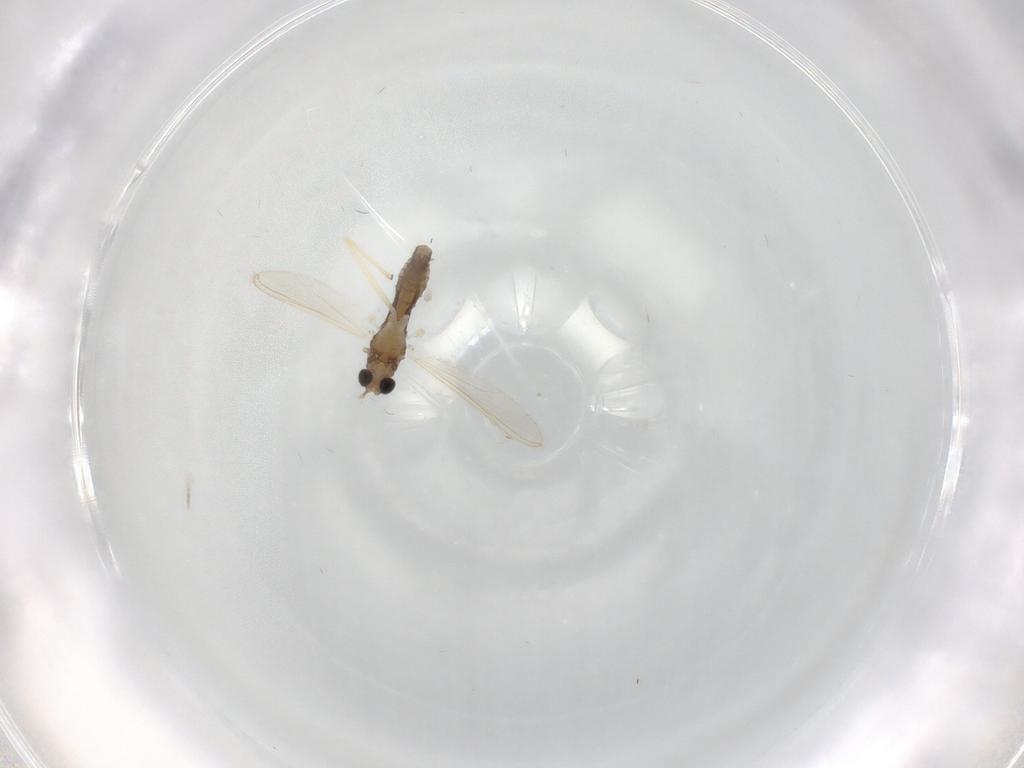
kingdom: Animalia
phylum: Arthropoda
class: Insecta
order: Diptera
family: Chironomidae
